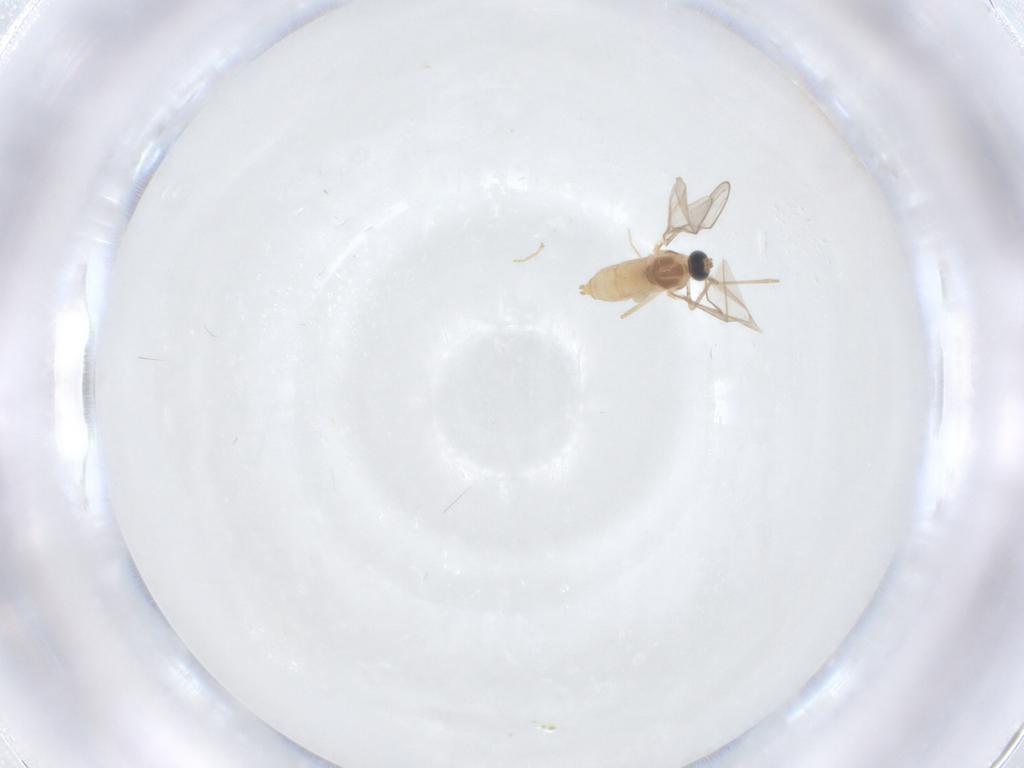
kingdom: Animalia
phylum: Arthropoda
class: Insecta
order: Diptera
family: Cecidomyiidae
